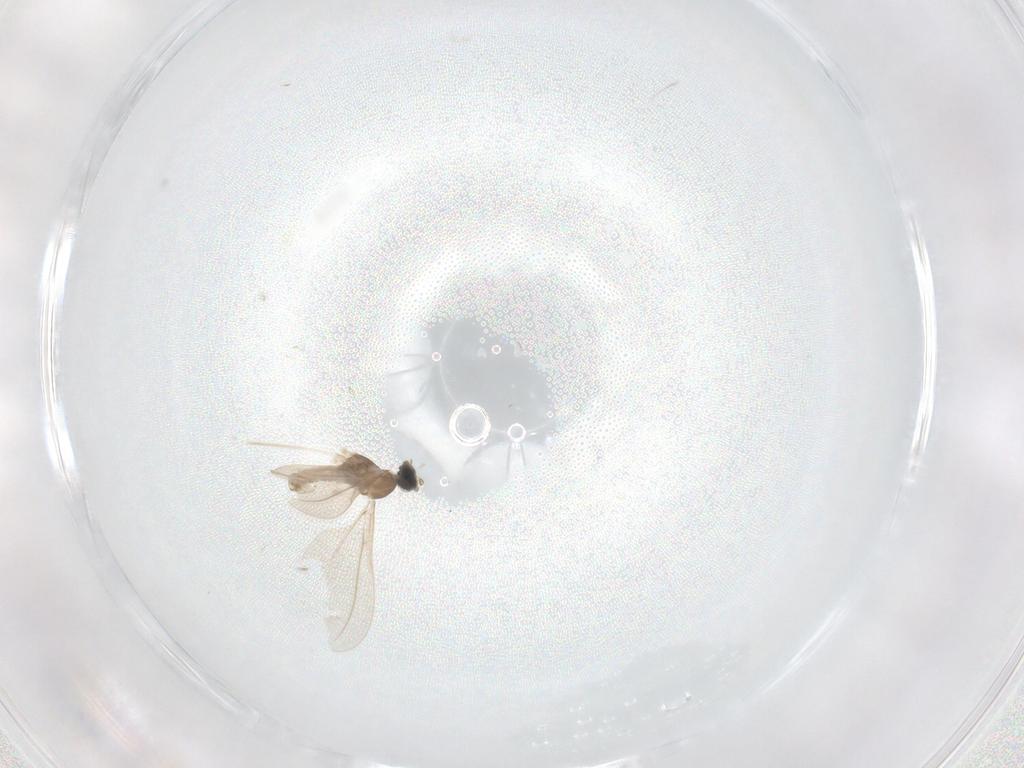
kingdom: Animalia
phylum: Arthropoda
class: Insecta
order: Diptera
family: Cecidomyiidae
